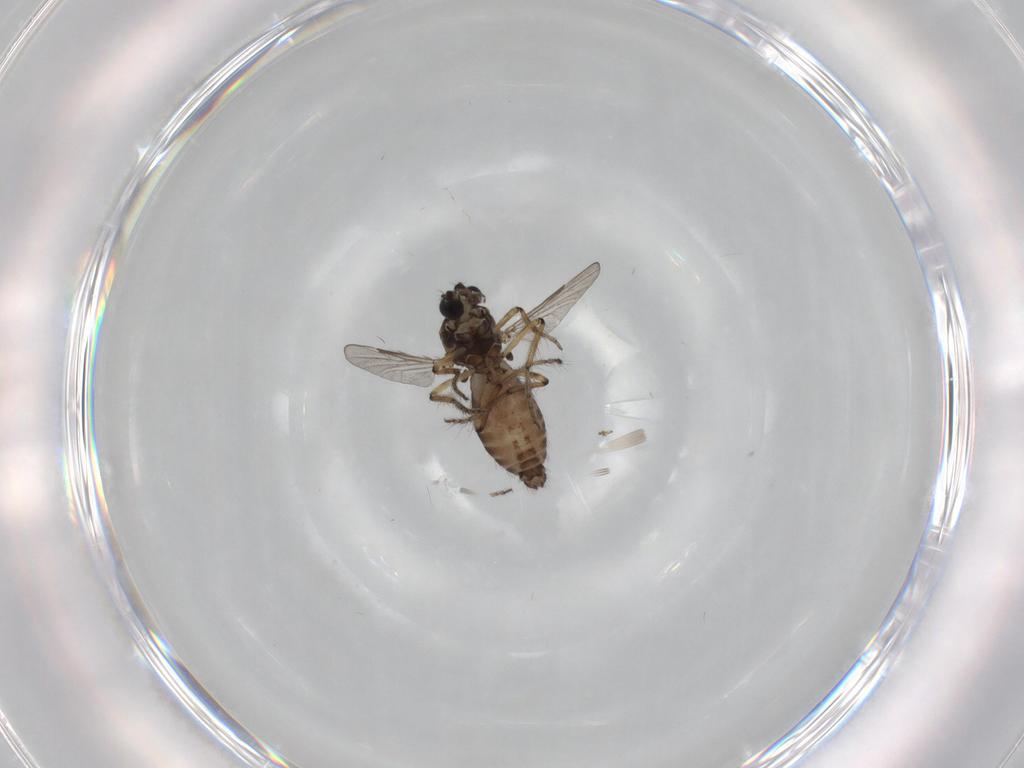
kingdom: Animalia
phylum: Arthropoda
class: Insecta
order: Diptera
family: Ceratopogonidae
